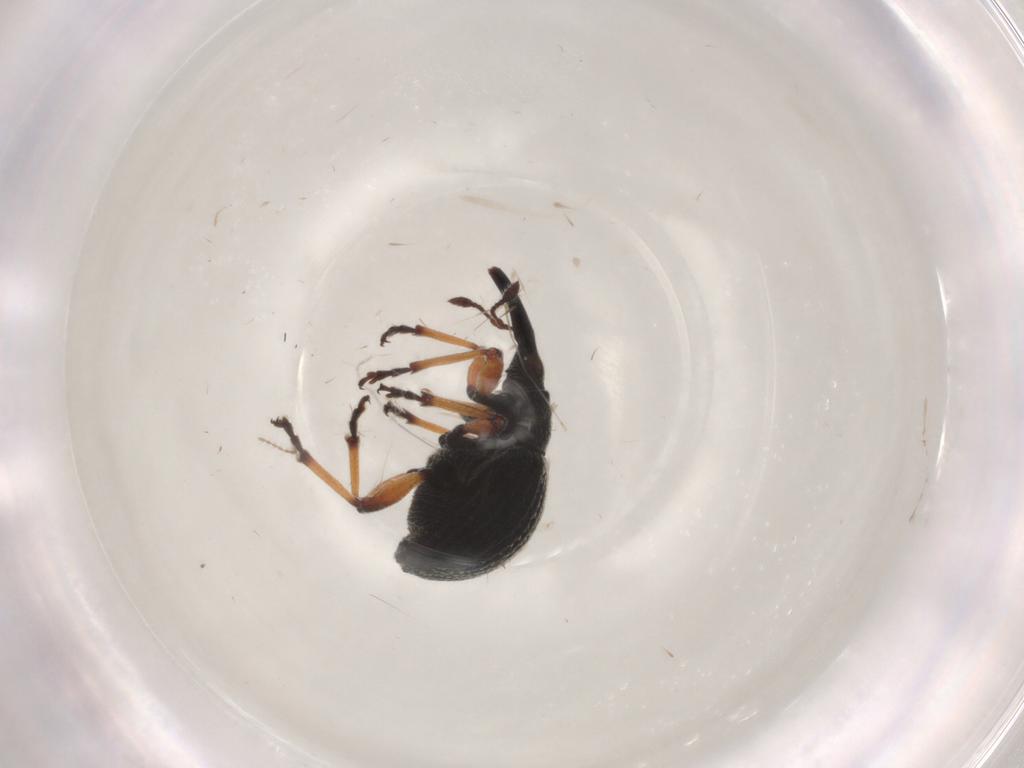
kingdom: Animalia
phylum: Arthropoda
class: Insecta
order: Coleoptera
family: Brentidae
